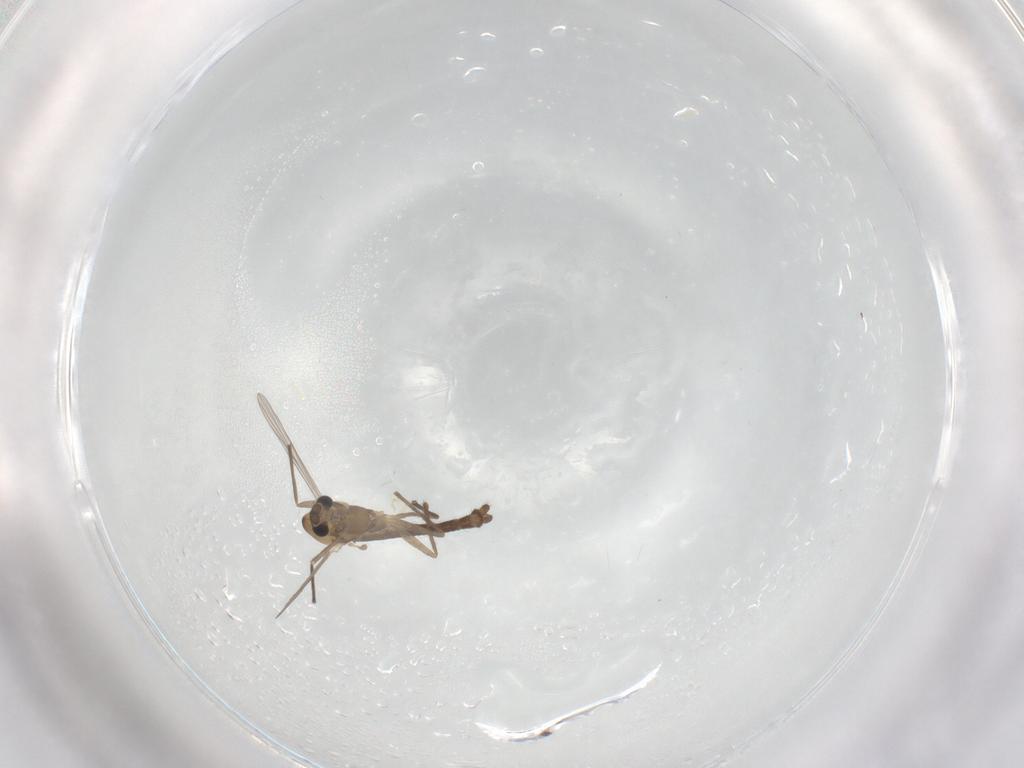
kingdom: Animalia
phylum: Arthropoda
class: Insecta
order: Diptera
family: Chironomidae
